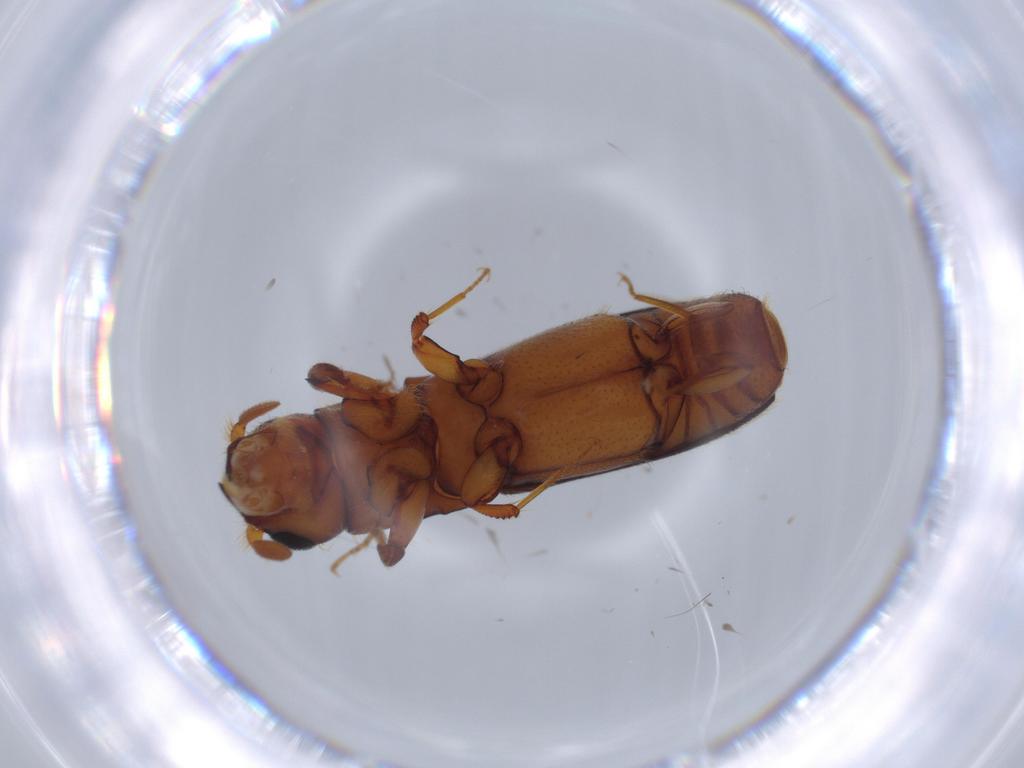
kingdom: Animalia
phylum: Arthropoda
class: Insecta
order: Coleoptera
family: Curculionidae
